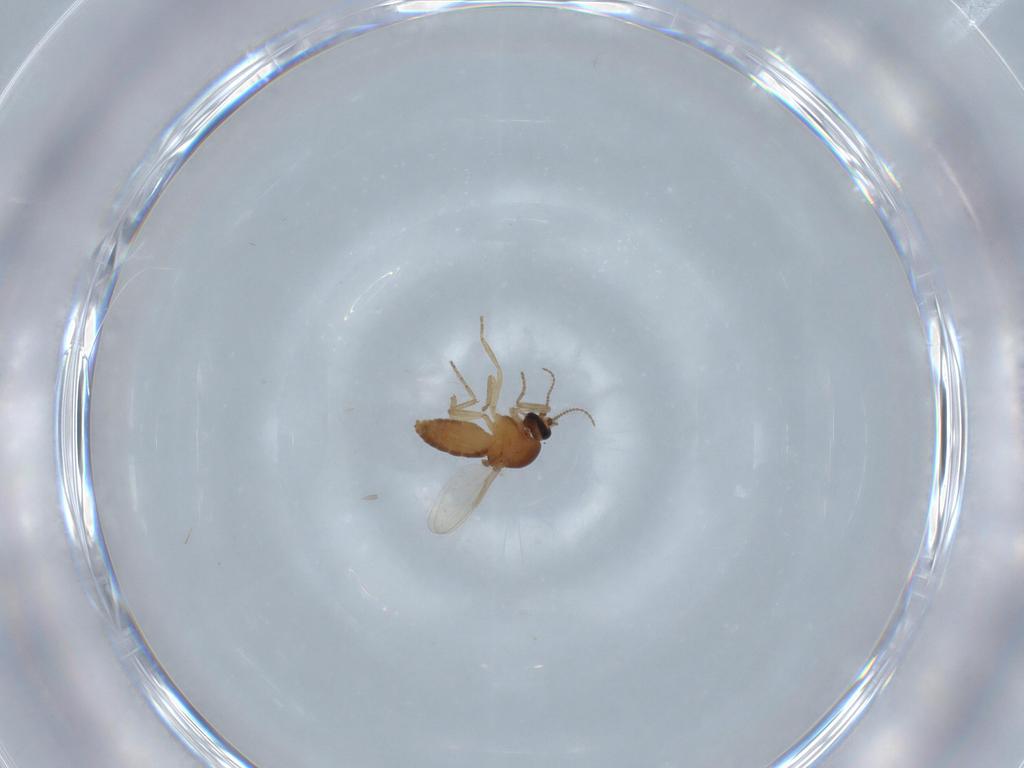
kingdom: Animalia
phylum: Arthropoda
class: Insecta
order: Diptera
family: Ceratopogonidae
